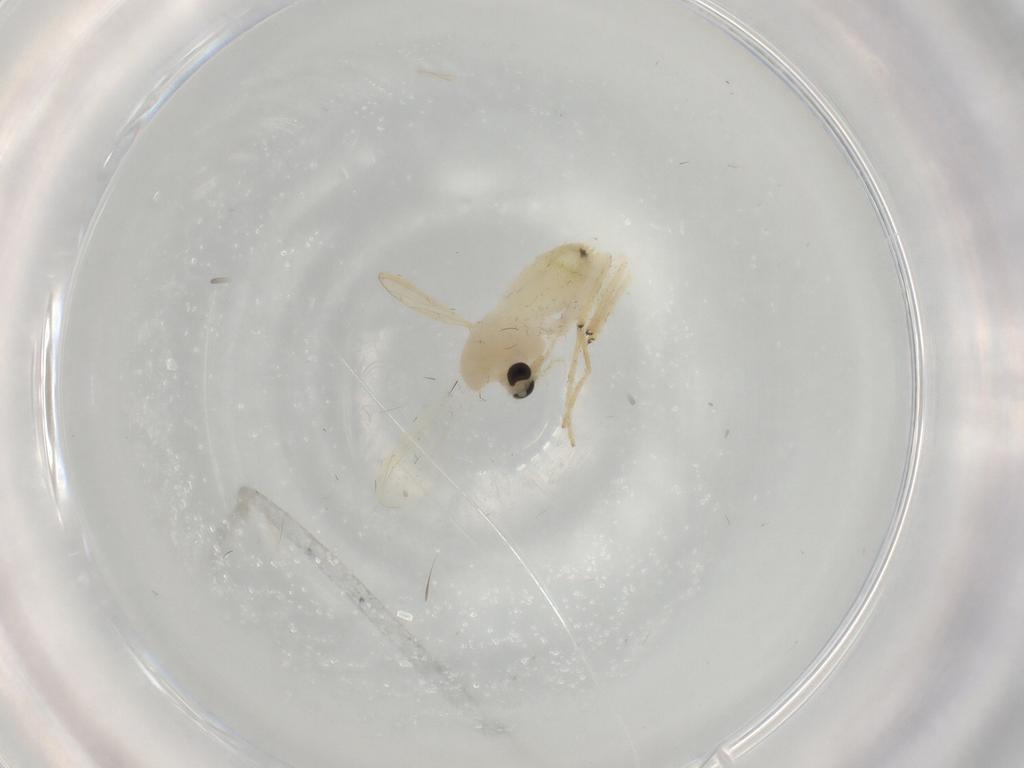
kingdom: Animalia
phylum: Arthropoda
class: Insecta
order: Diptera
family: Chironomidae
